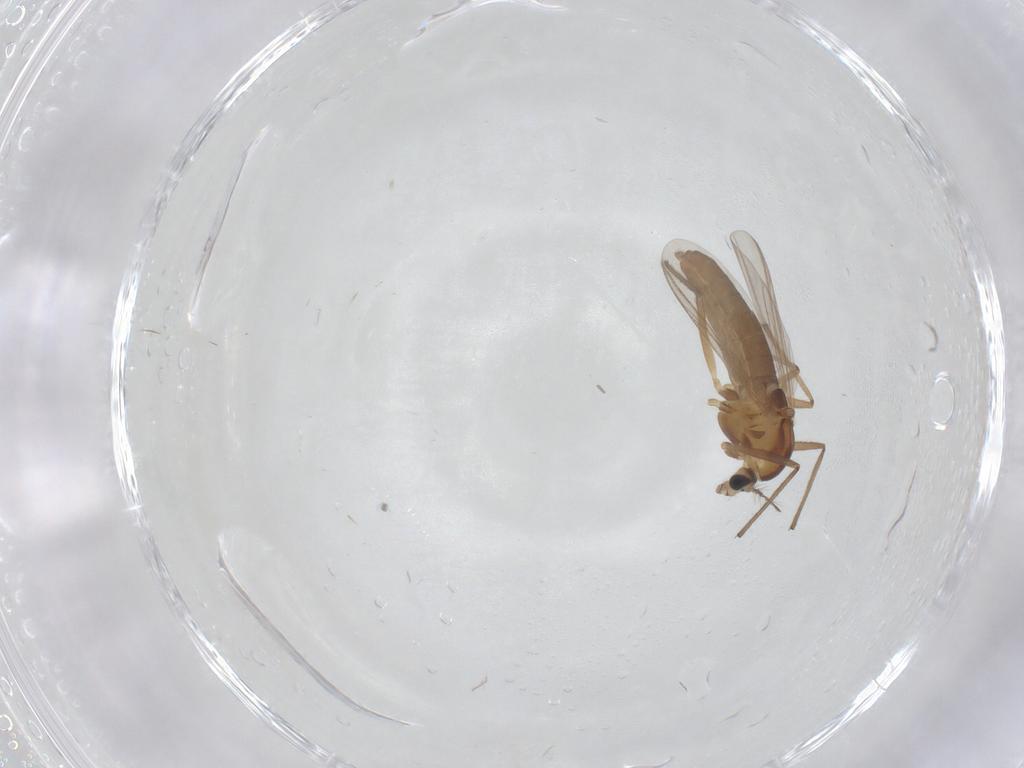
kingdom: Animalia
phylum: Arthropoda
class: Insecta
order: Diptera
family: Chironomidae
